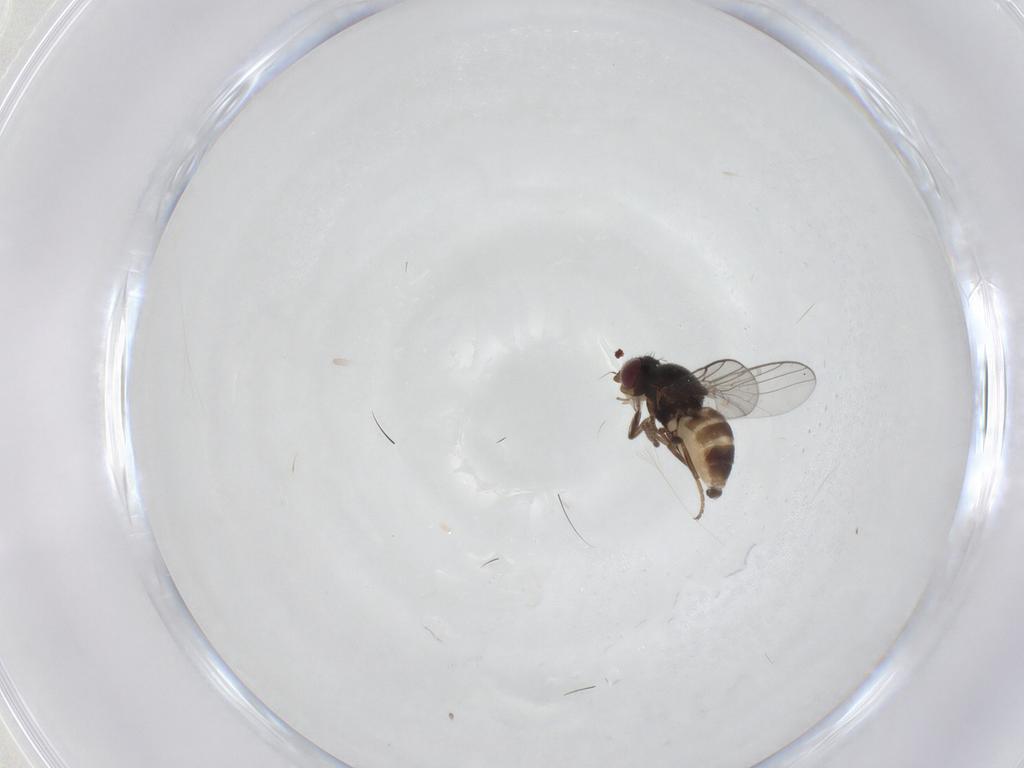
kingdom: Animalia
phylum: Arthropoda
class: Insecta
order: Diptera
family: Chloropidae
